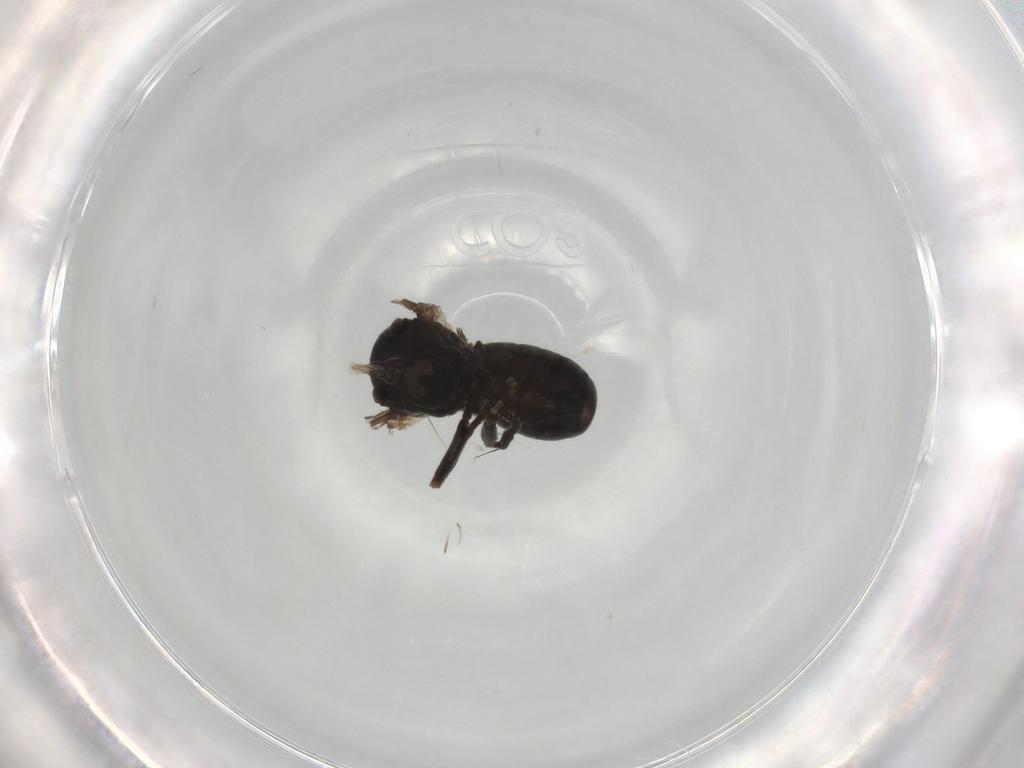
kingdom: Animalia
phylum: Arthropoda
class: Insecta
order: Diptera
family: Pipunculidae
